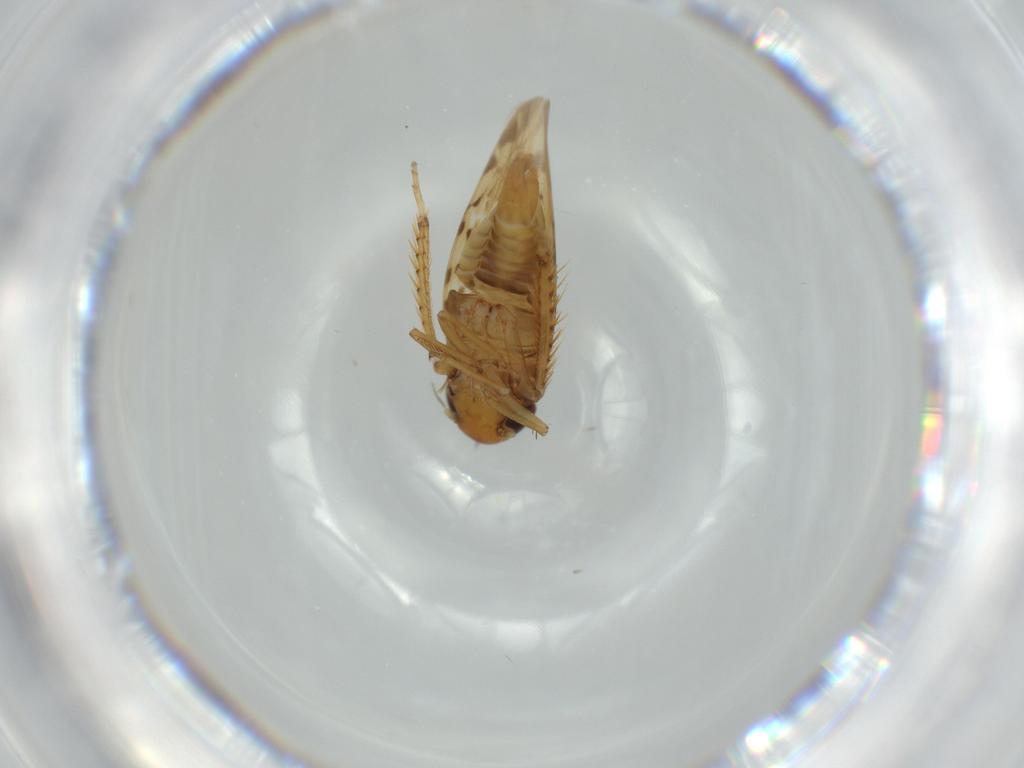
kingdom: Animalia
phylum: Arthropoda
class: Insecta
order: Hemiptera
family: Cicadellidae
